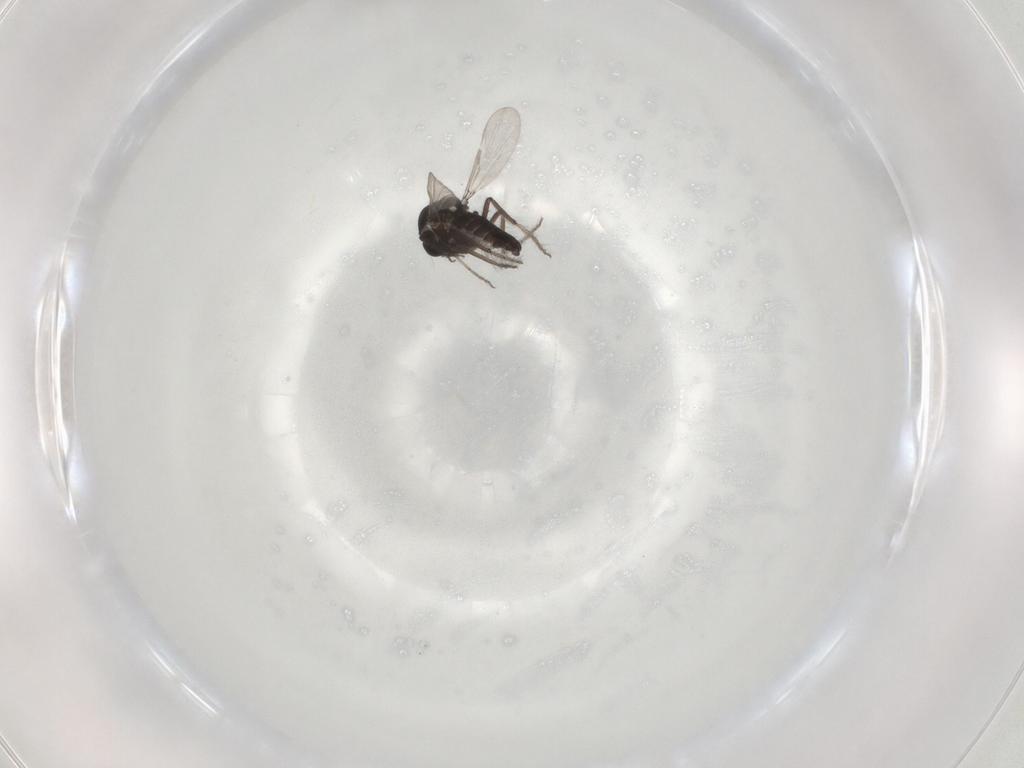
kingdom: Animalia
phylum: Arthropoda
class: Insecta
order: Diptera
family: Ceratopogonidae
